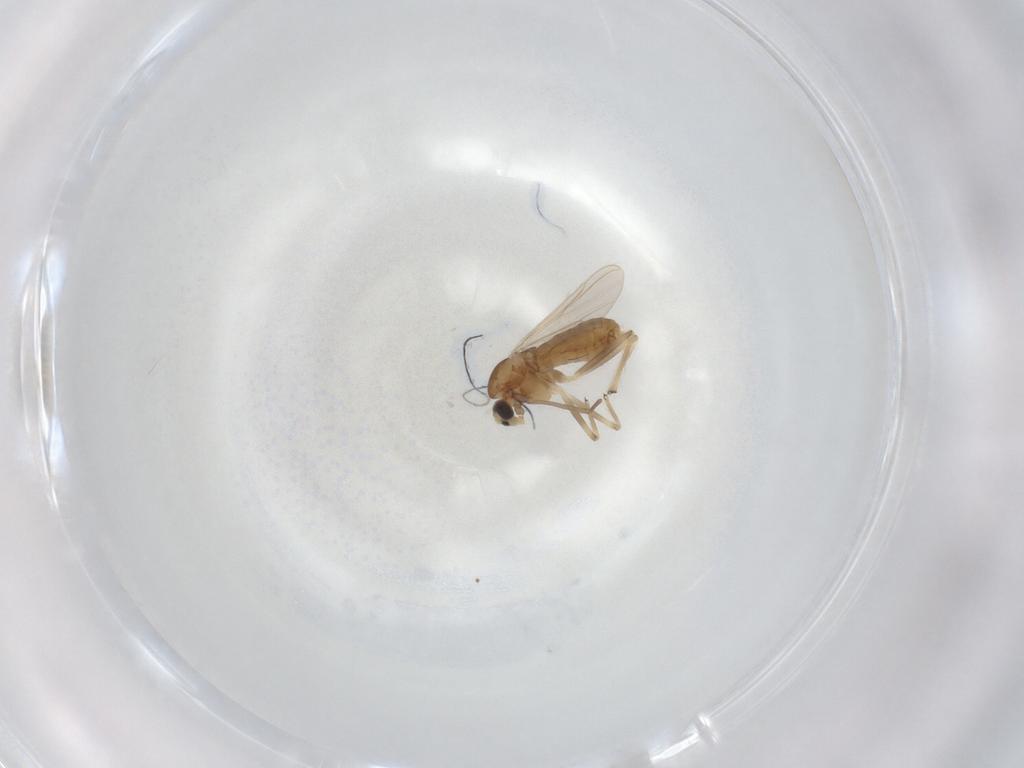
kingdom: Animalia
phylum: Arthropoda
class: Insecta
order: Diptera
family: Chironomidae
